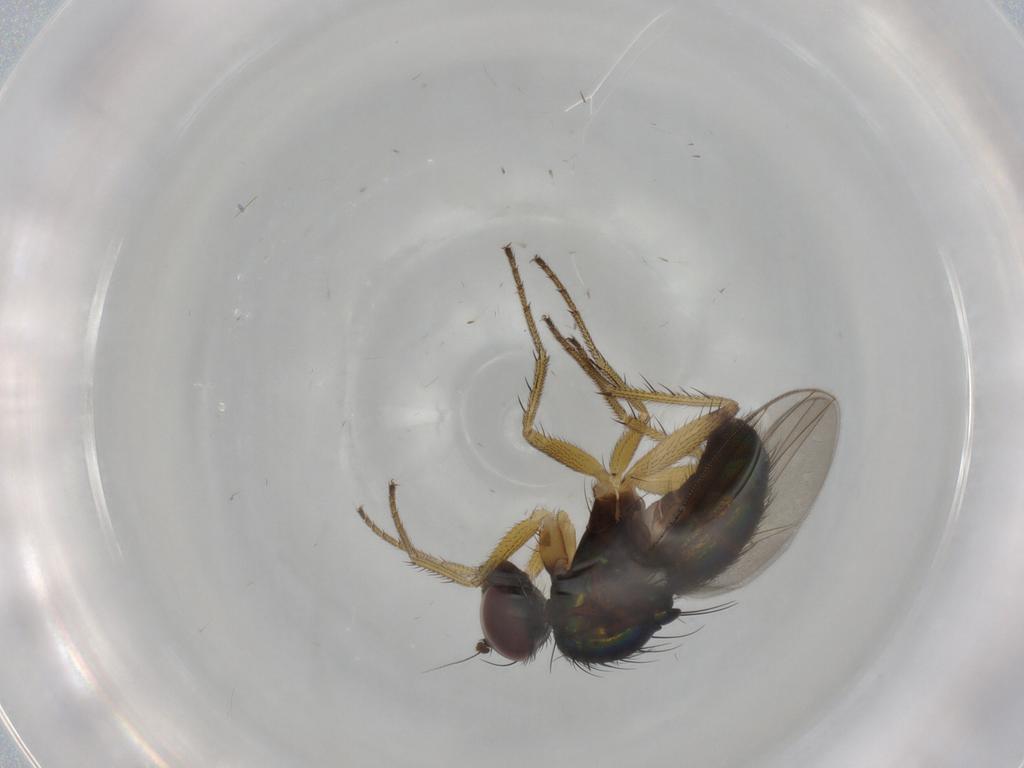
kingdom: Animalia
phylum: Arthropoda
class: Insecta
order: Diptera
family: Dolichopodidae
